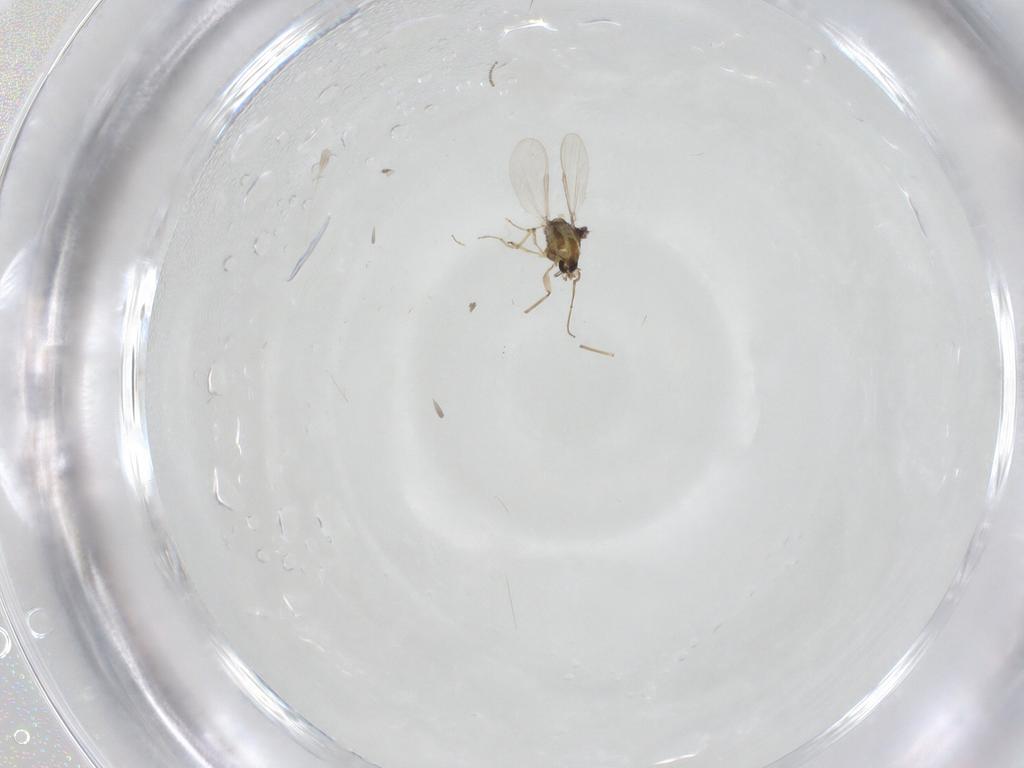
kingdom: Animalia
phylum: Arthropoda
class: Insecta
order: Diptera
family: Chironomidae
